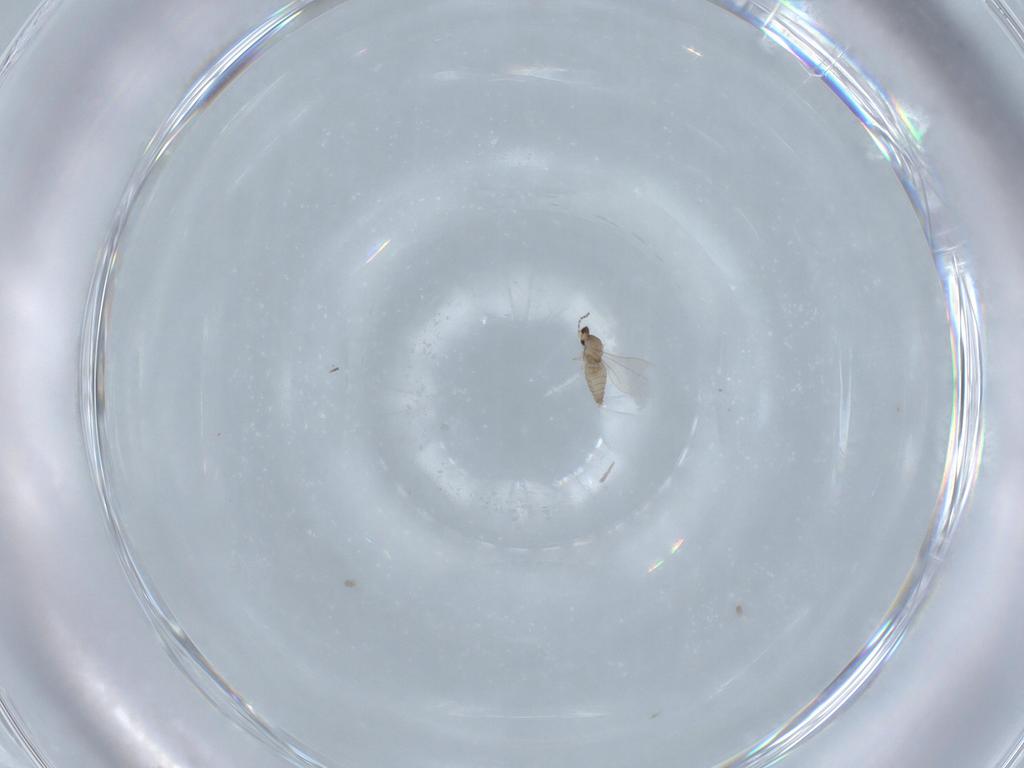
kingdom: Animalia
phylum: Arthropoda
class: Insecta
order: Diptera
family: Cecidomyiidae
